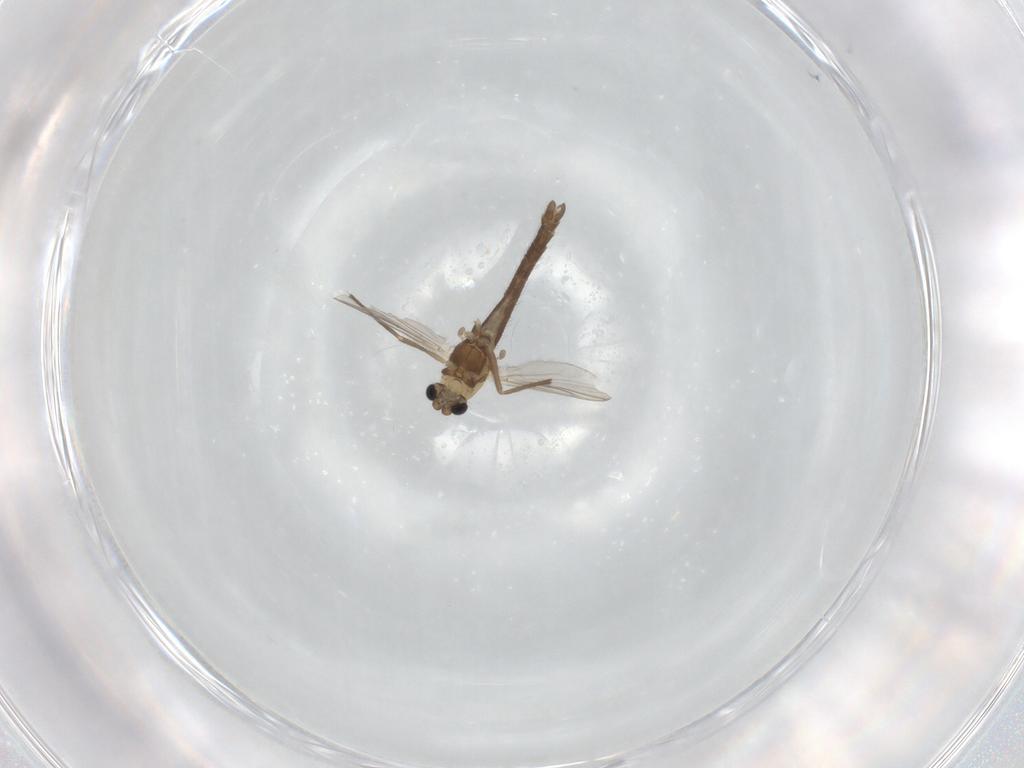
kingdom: Animalia
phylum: Arthropoda
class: Insecta
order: Diptera
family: Chironomidae
